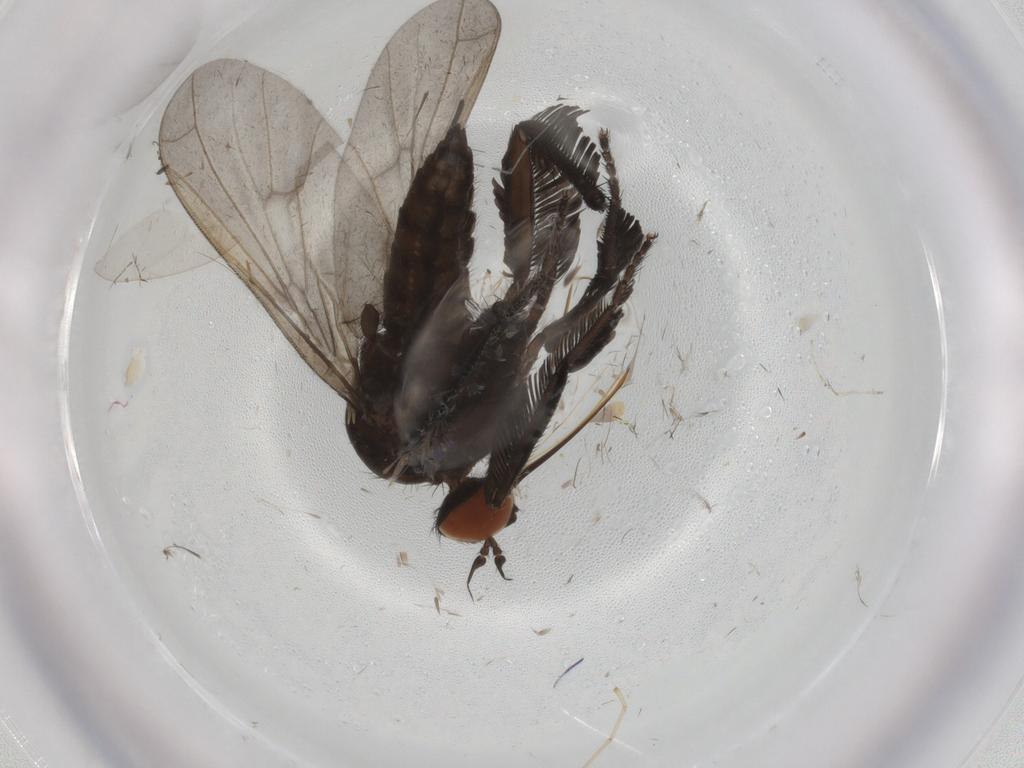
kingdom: Animalia
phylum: Arthropoda
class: Insecta
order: Diptera
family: Empididae
